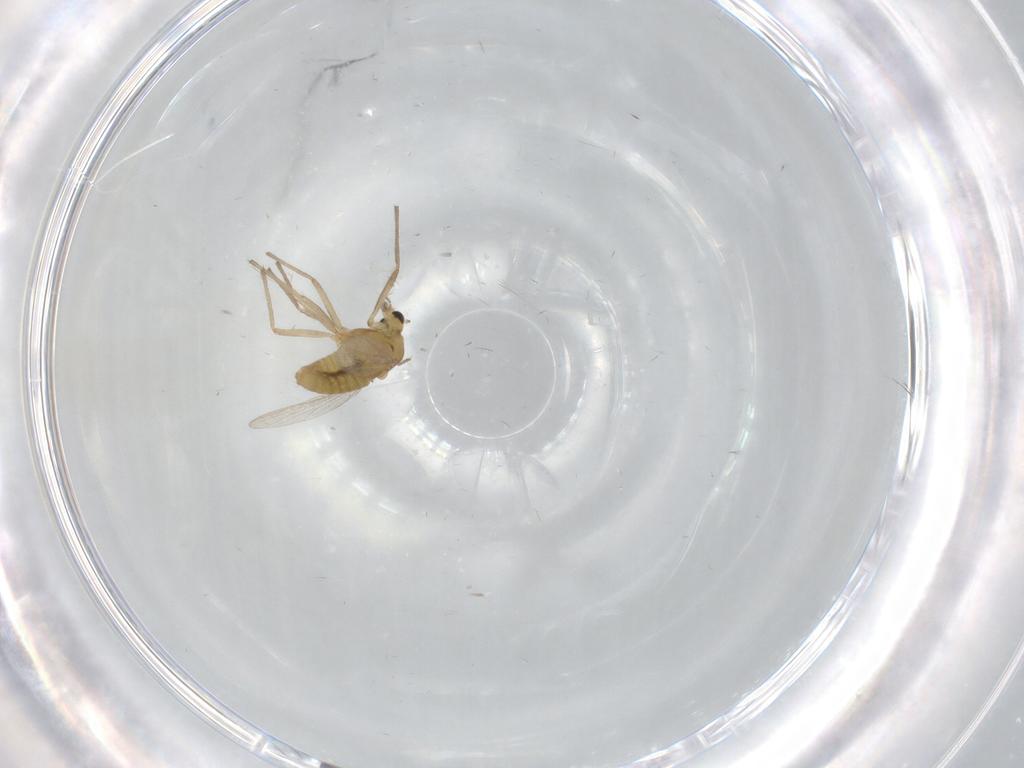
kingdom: Animalia
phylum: Arthropoda
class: Insecta
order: Diptera
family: Chironomidae
